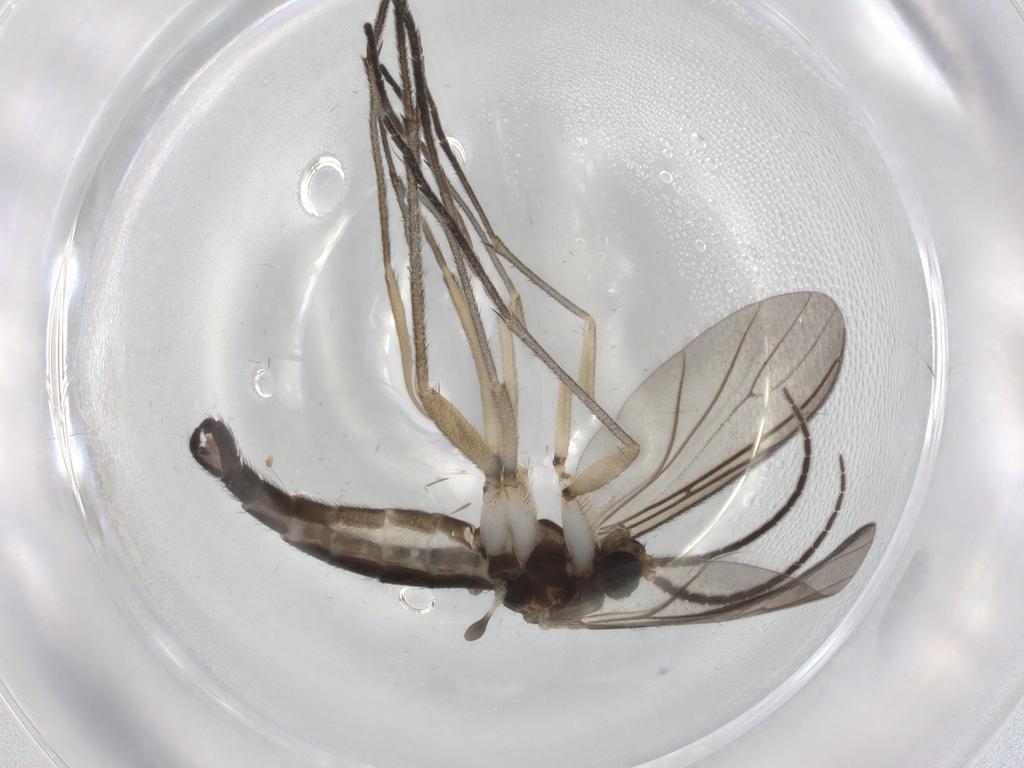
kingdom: Animalia
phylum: Arthropoda
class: Insecta
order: Diptera
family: Sciaridae
